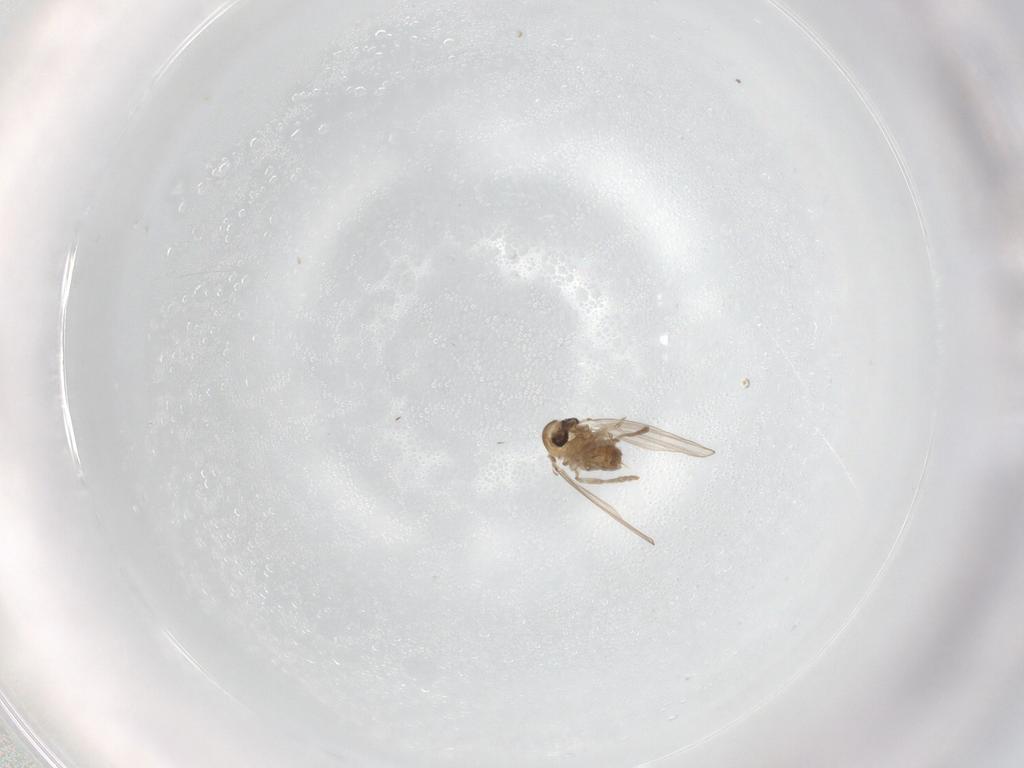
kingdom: Animalia
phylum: Arthropoda
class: Insecta
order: Diptera
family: Psychodidae
